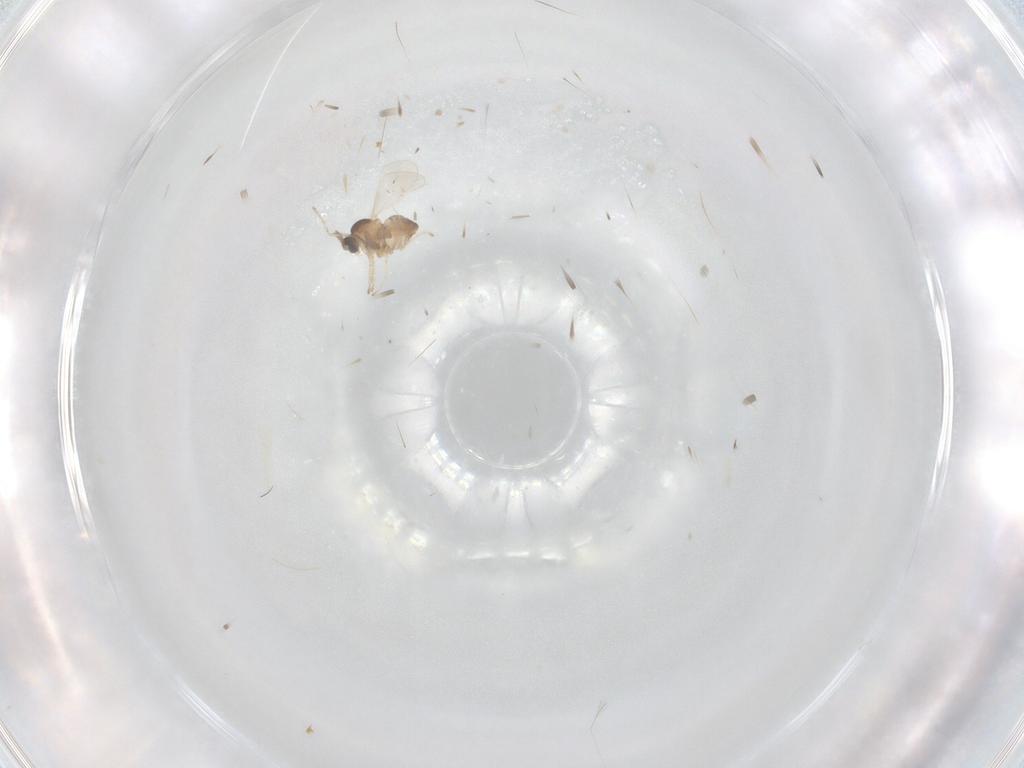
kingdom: Animalia
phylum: Arthropoda
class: Insecta
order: Diptera
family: Cecidomyiidae
